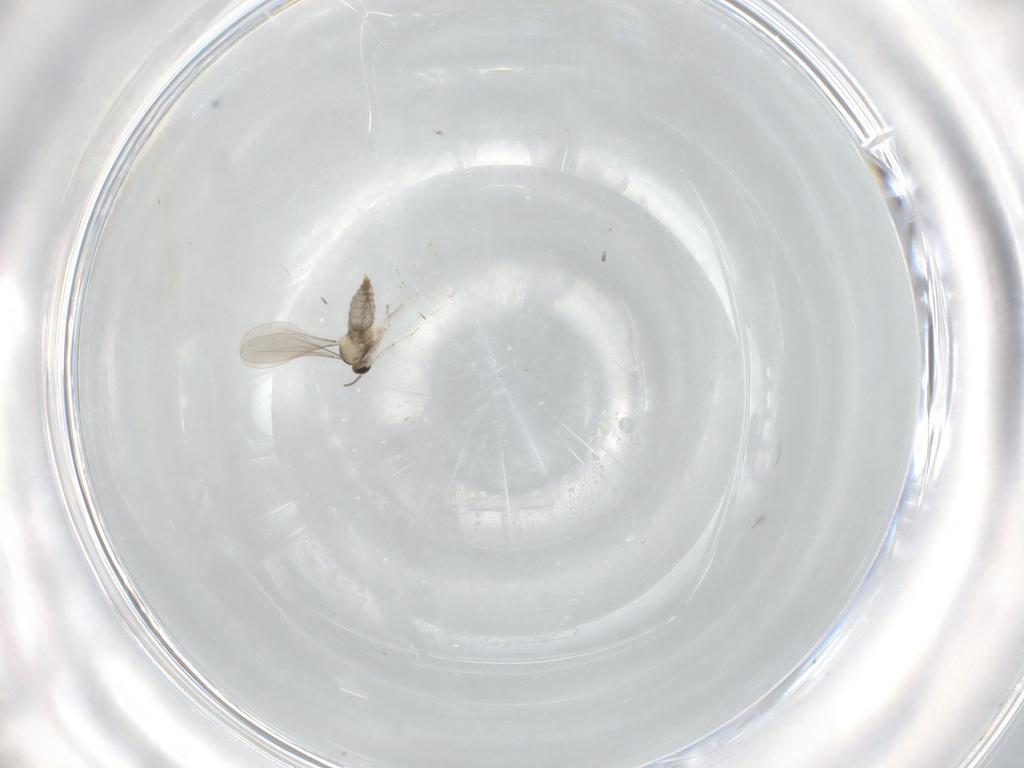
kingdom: Animalia
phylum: Arthropoda
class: Insecta
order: Diptera
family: Cecidomyiidae
